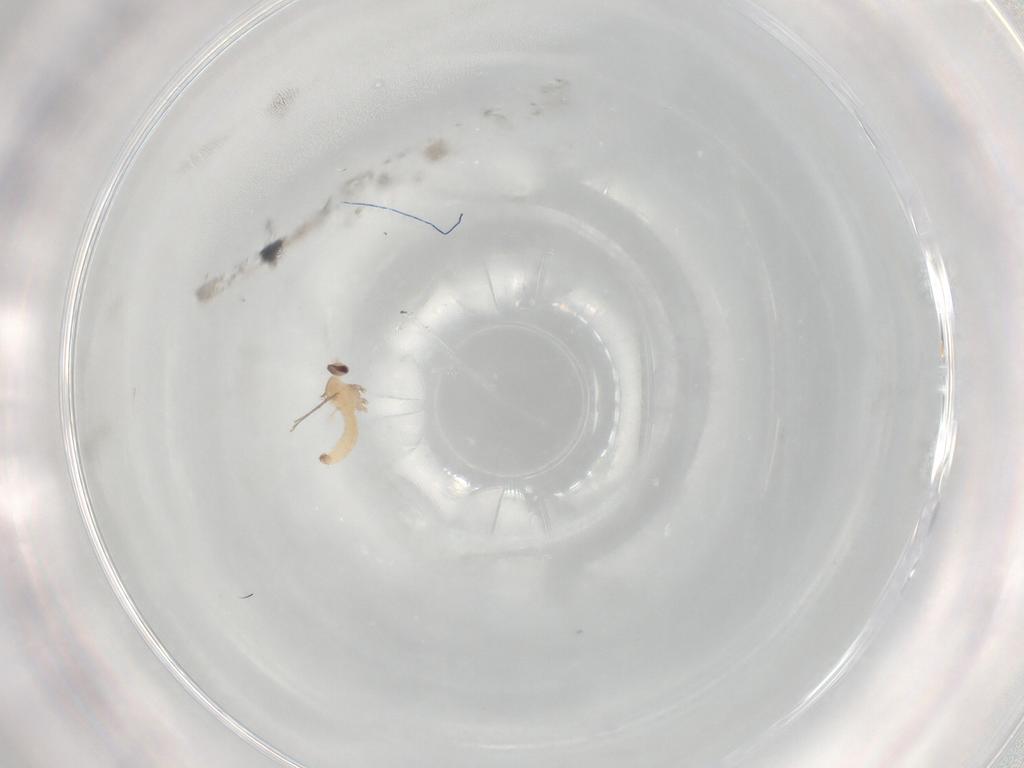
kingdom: Animalia
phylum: Arthropoda
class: Insecta
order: Diptera
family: Cecidomyiidae
